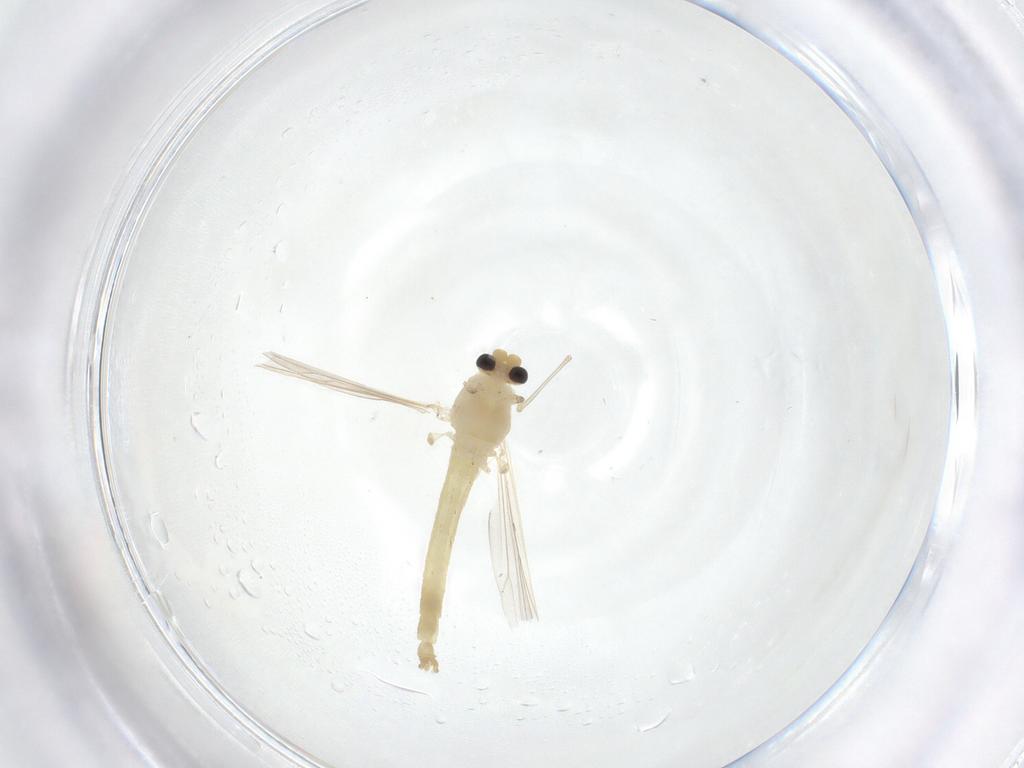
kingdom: Animalia
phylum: Arthropoda
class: Insecta
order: Diptera
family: Chironomidae
